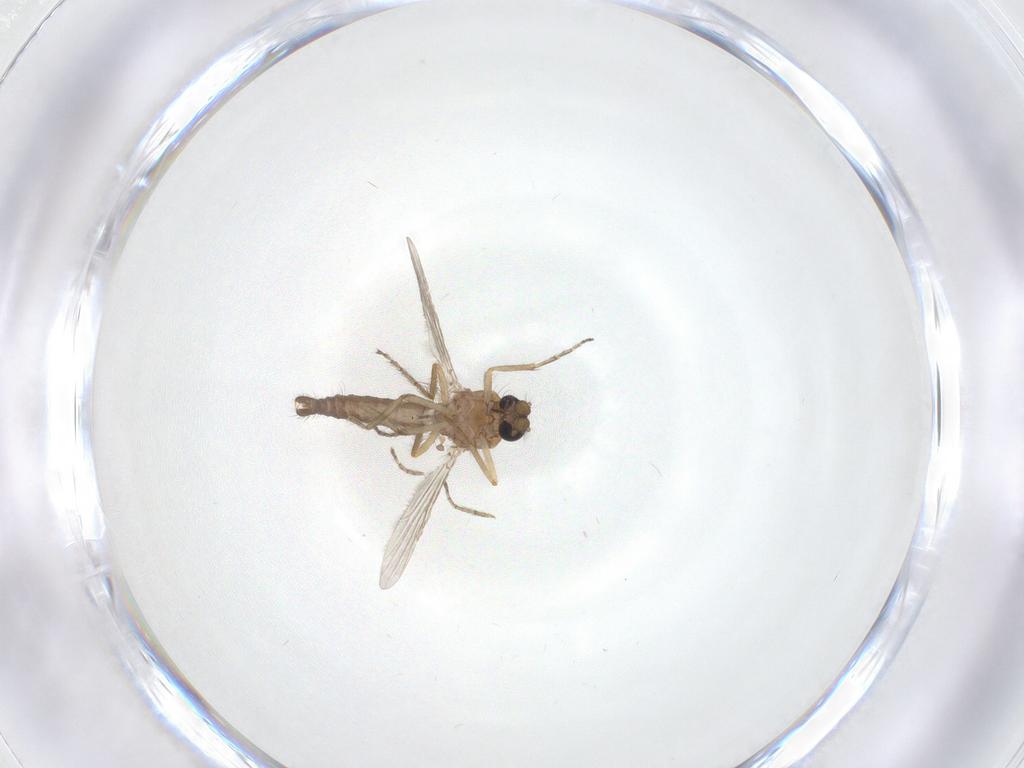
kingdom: Animalia
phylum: Arthropoda
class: Insecta
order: Diptera
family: Ceratopogonidae
